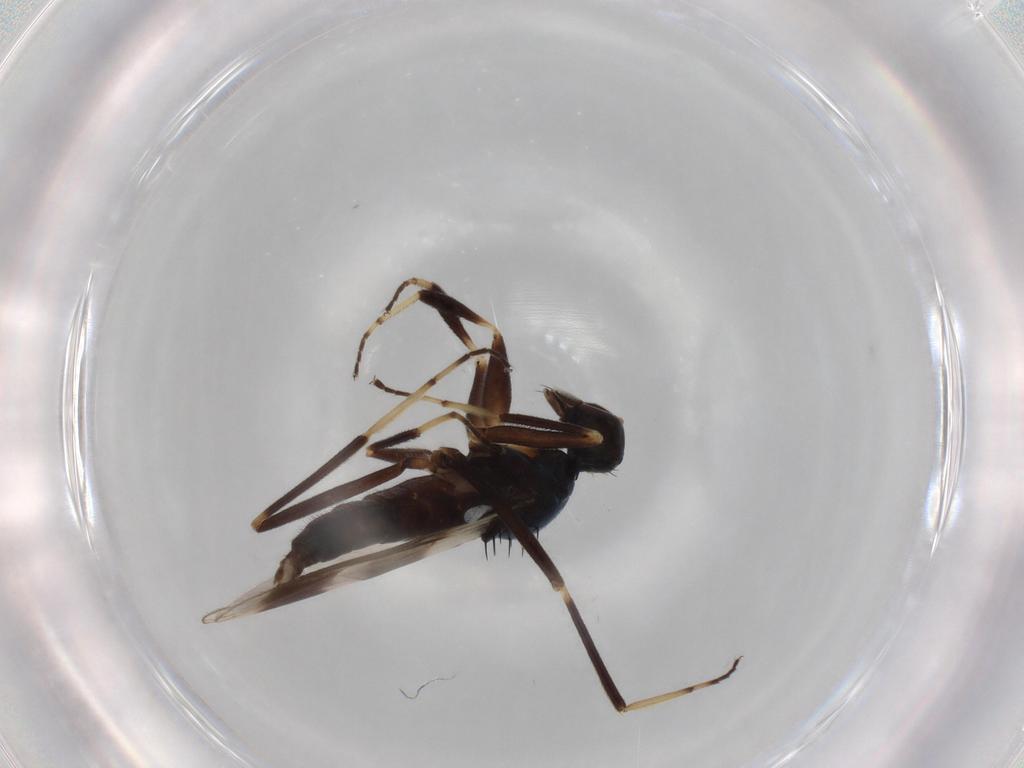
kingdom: Animalia
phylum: Arthropoda
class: Insecta
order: Diptera
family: Hybotidae
